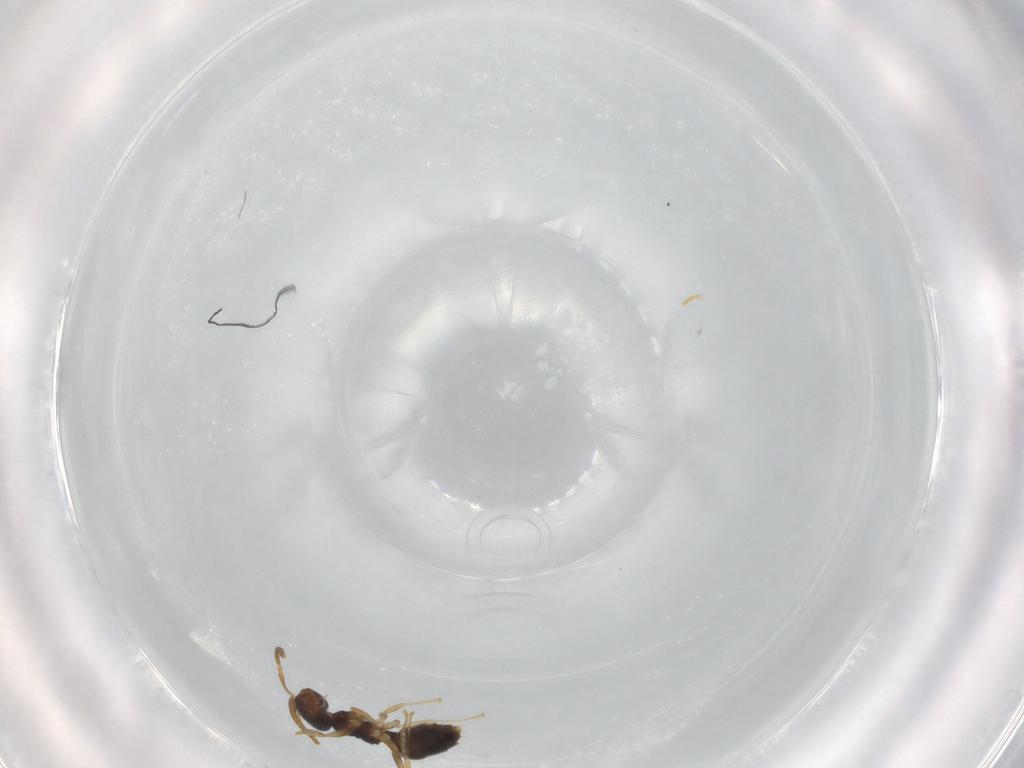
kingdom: Animalia
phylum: Arthropoda
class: Insecta
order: Hymenoptera
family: Formicidae
